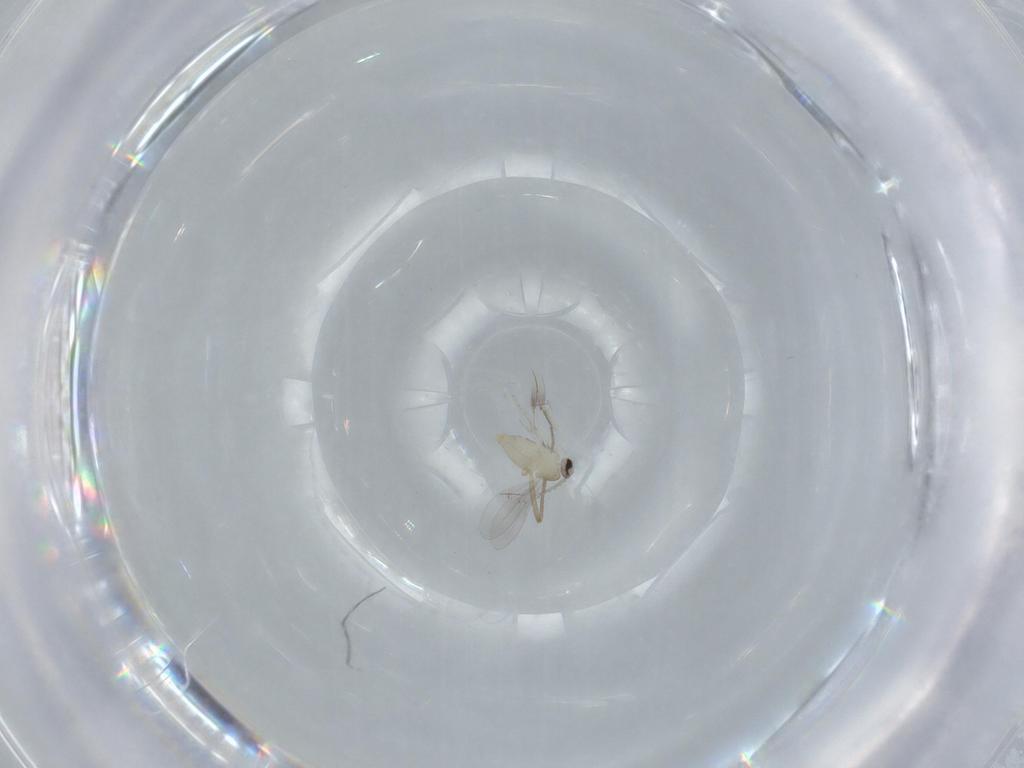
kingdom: Animalia
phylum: Arthropoda
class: Insecta
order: Diptera
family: Cecidomyiidae
